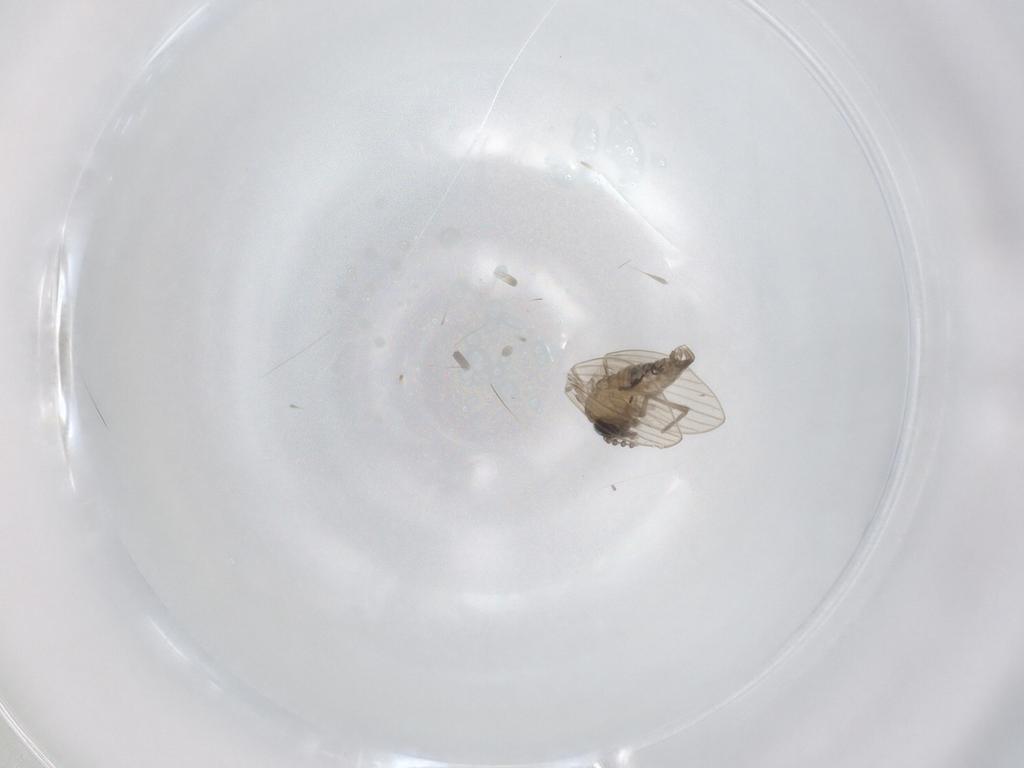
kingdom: Animalia
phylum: Arthropoda
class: Insecta
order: Diptera
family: Psychodidae
